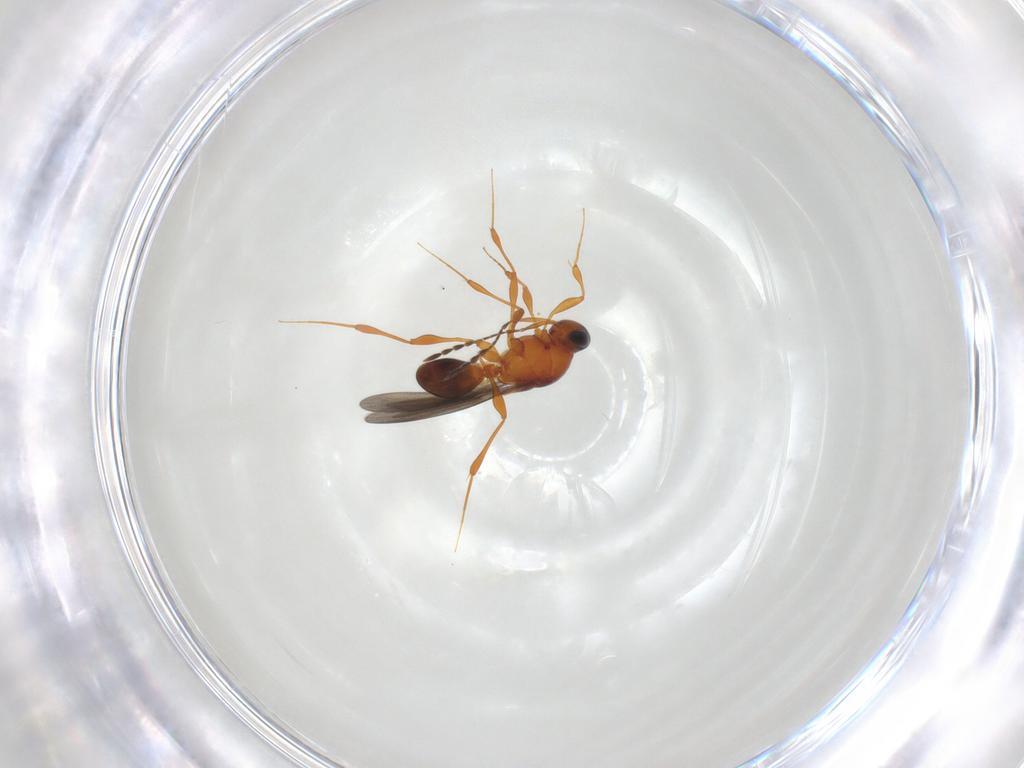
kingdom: Animalia
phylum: Arthropoda
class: Insecta
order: Hymenoptera
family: Platygastridae
